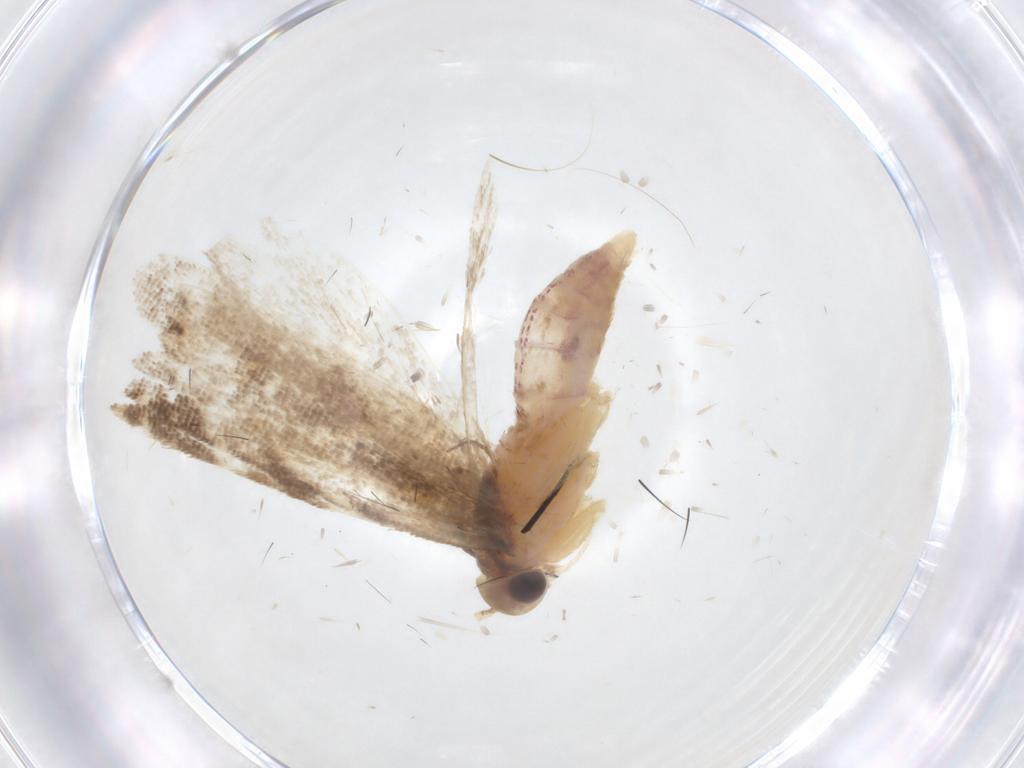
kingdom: Animalia
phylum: Arthropoda
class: Insecta
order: Lepidoptera
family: Gelechiidae
